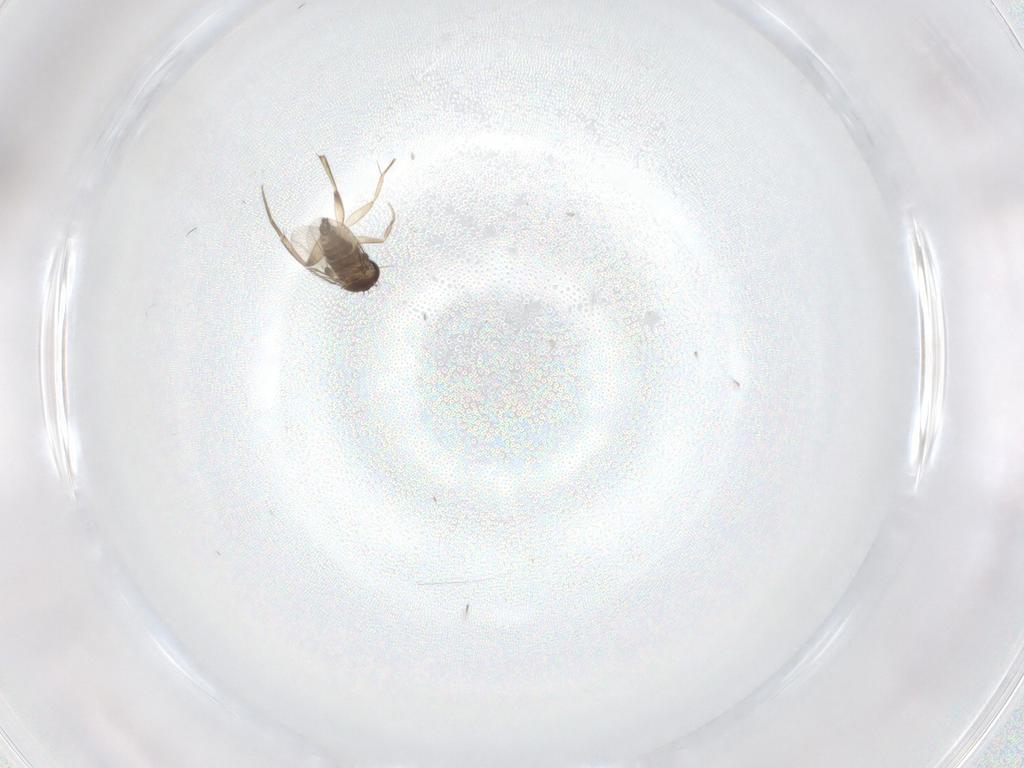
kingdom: Animalia
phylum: Arthropoda
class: Insecta
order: Diptera
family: Phoridae
